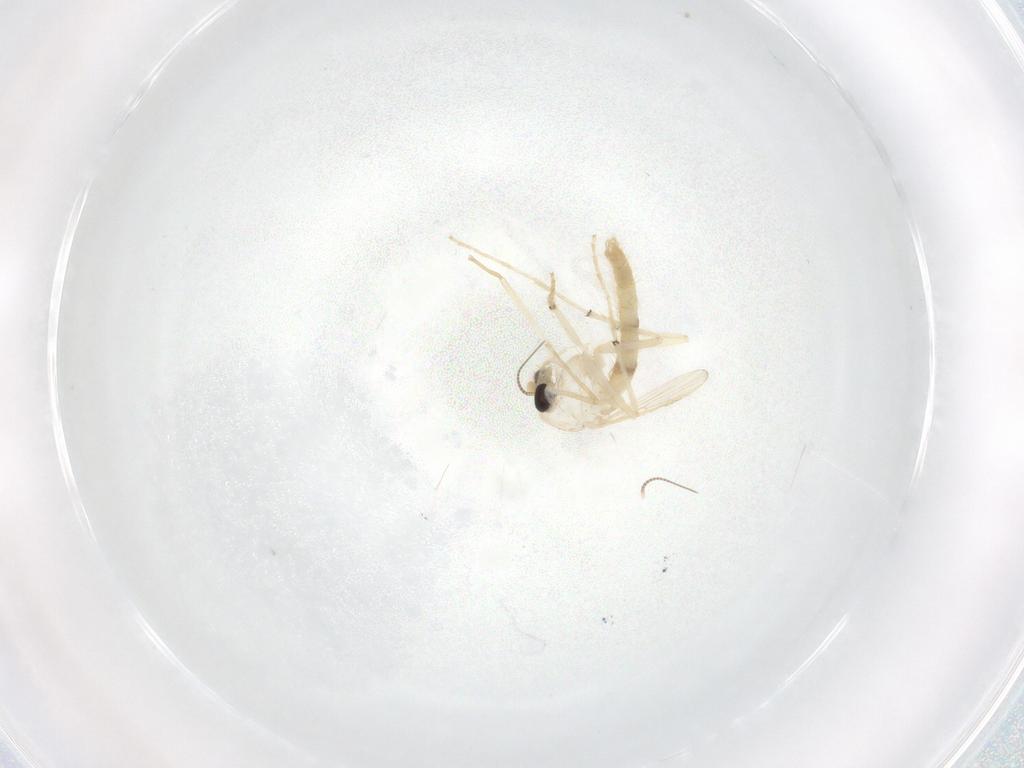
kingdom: Animalia
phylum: Arthropoda
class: Insecta
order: Diptera
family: Chironomidae
